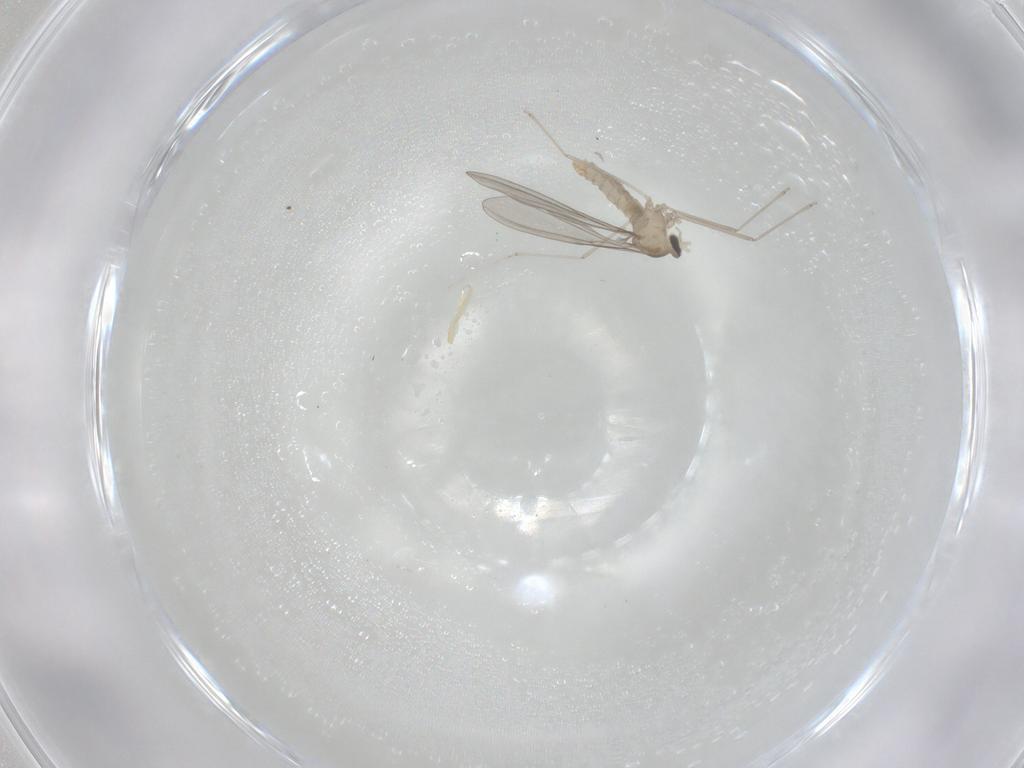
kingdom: Animalia
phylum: Arthropoda
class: Insecta
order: Diptera
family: Cecidomyiidae
